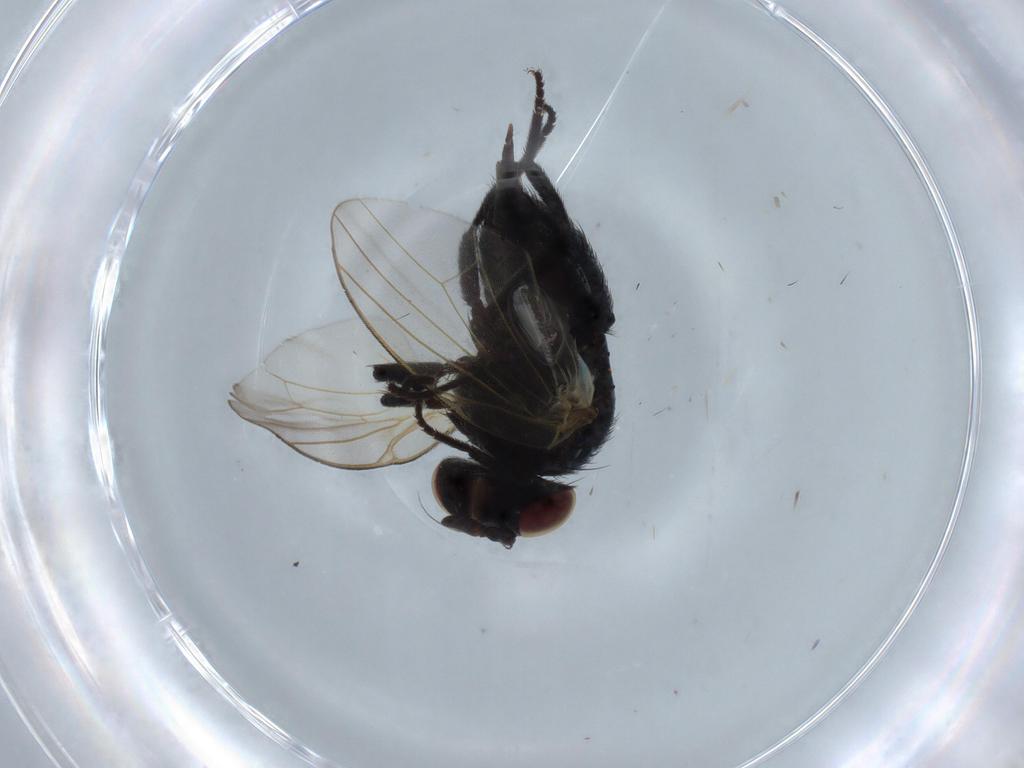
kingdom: Animalia
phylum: Arthropoda
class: Insecta
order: Diptera
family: Lonchaeidae
